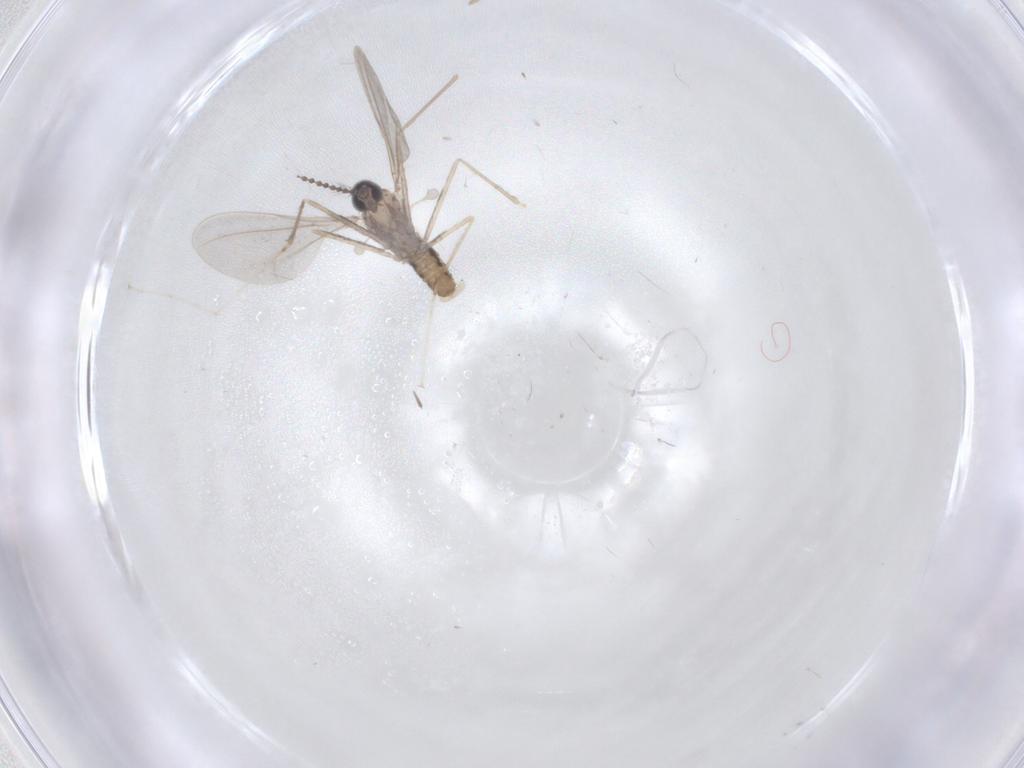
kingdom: Animalia
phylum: Arthropoda
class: Insecta
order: Diptera
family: Cecidomyiidae
